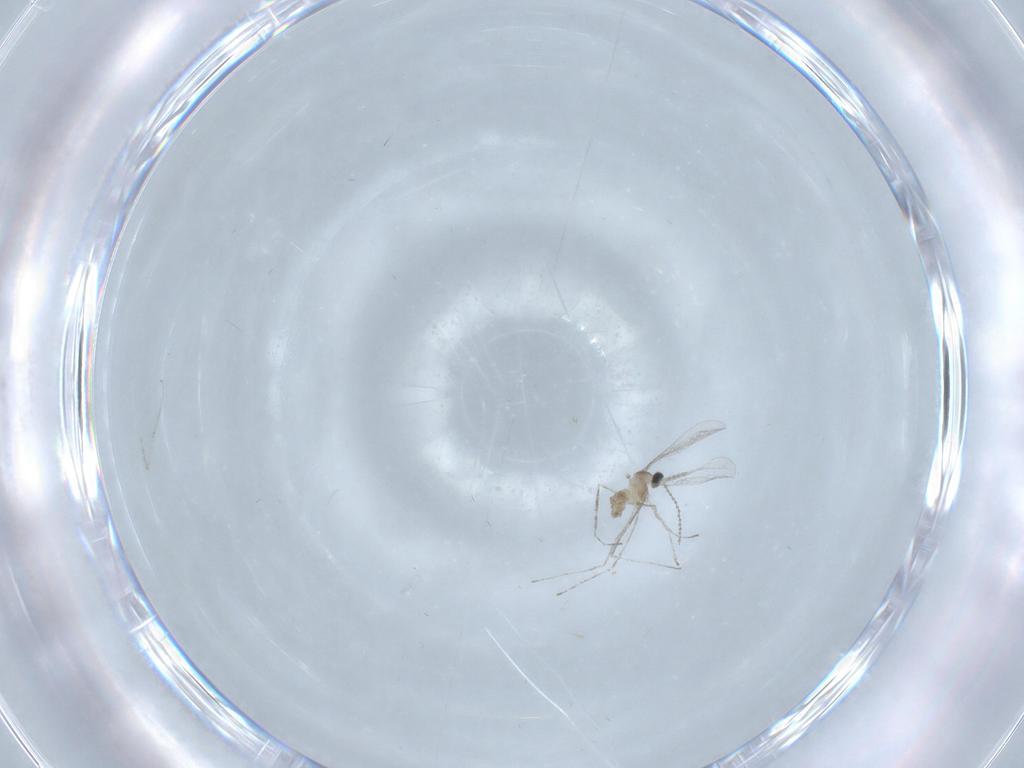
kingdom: Animalia
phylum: Arthropoda
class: Insecta
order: Diptera
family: Cecidomyiidae
